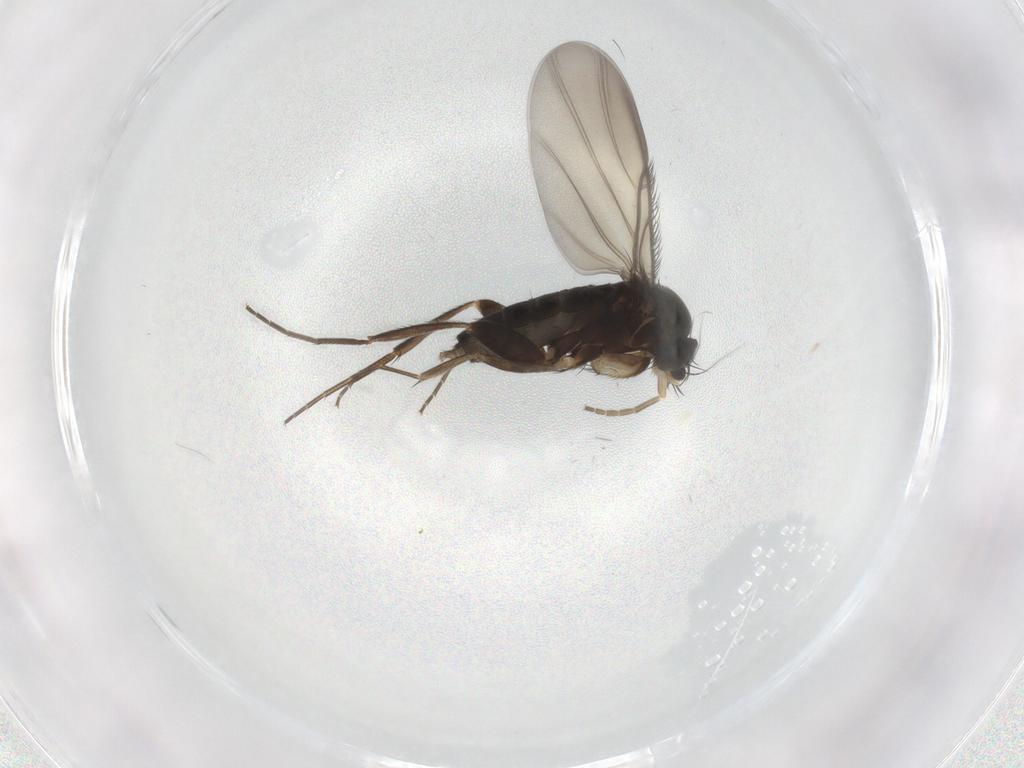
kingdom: Animalia
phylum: Arthropoda
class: Insecta
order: Diptera
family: Phoridae
